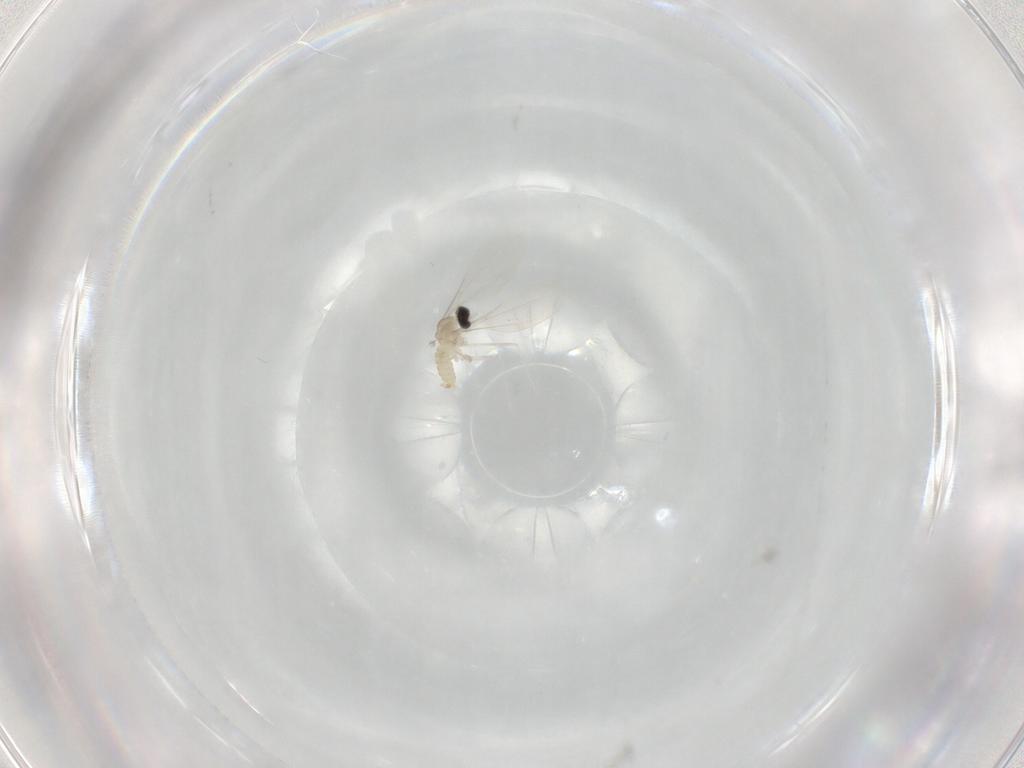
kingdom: Animalia
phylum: Arthropoda
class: Insecta
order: Diptera
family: Cecidomyiidae
